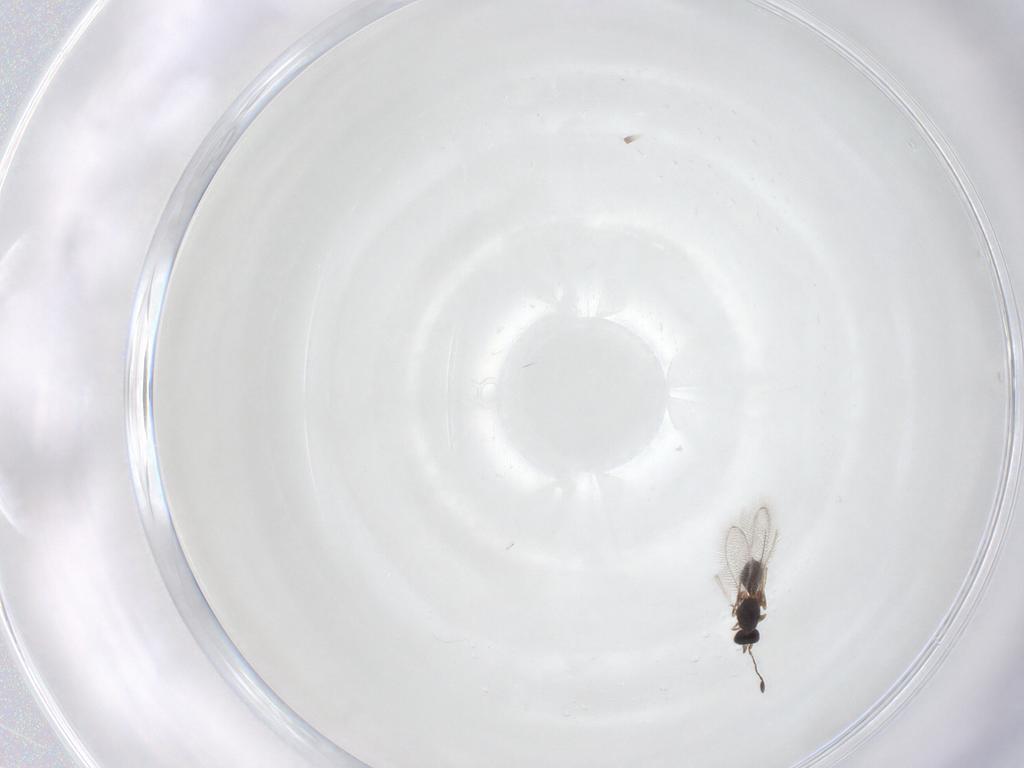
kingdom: Animalia
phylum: Arthropoda
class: Insecta
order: Hymenoptera
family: Mymaridae
